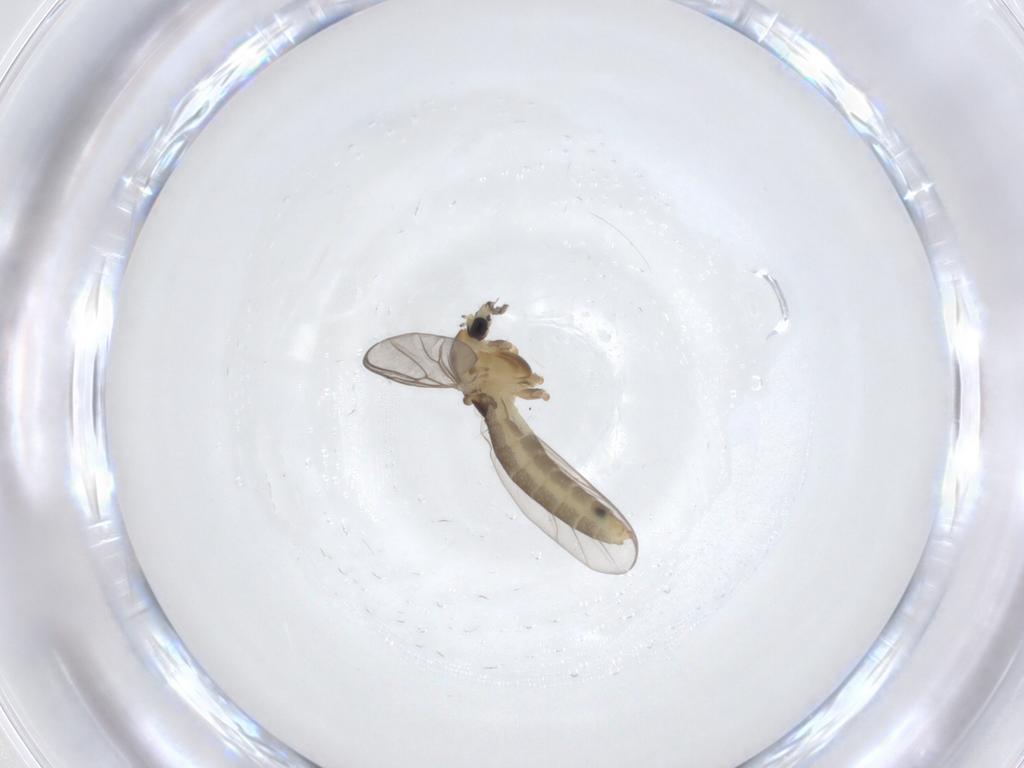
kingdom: Animalia
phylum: Arthropoda
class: Insecta
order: Diptera
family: Chironomidae
